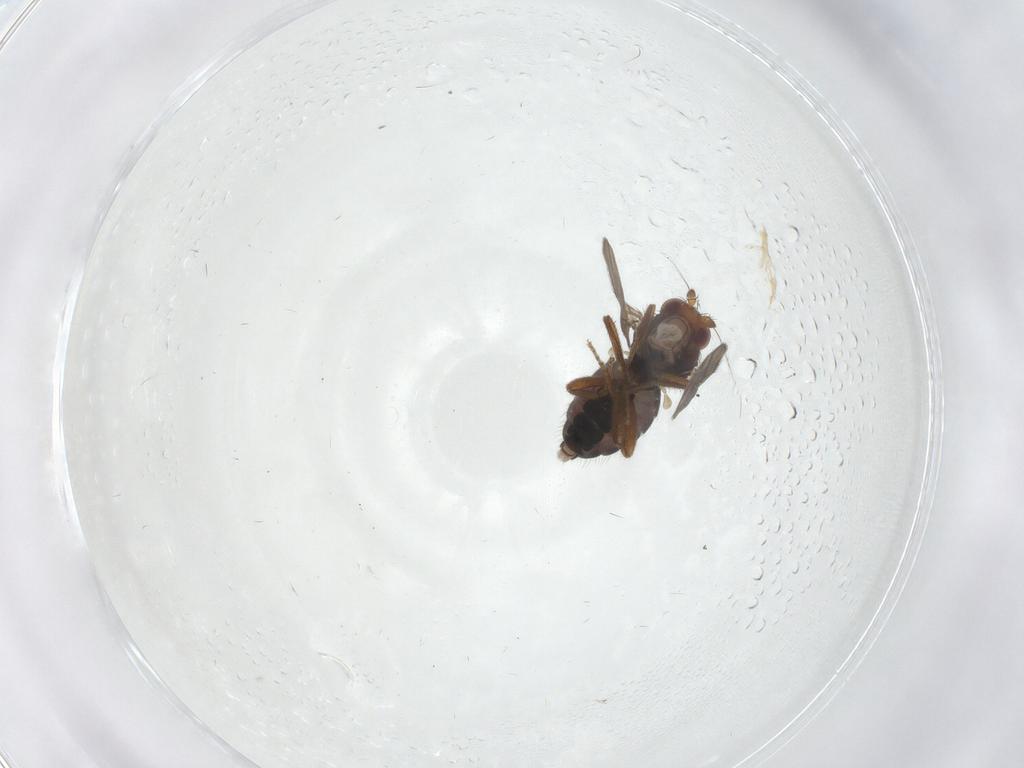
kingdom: Animalia
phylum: Arthropoda
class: Insecta
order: Diptera
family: Sphaeroceridae
